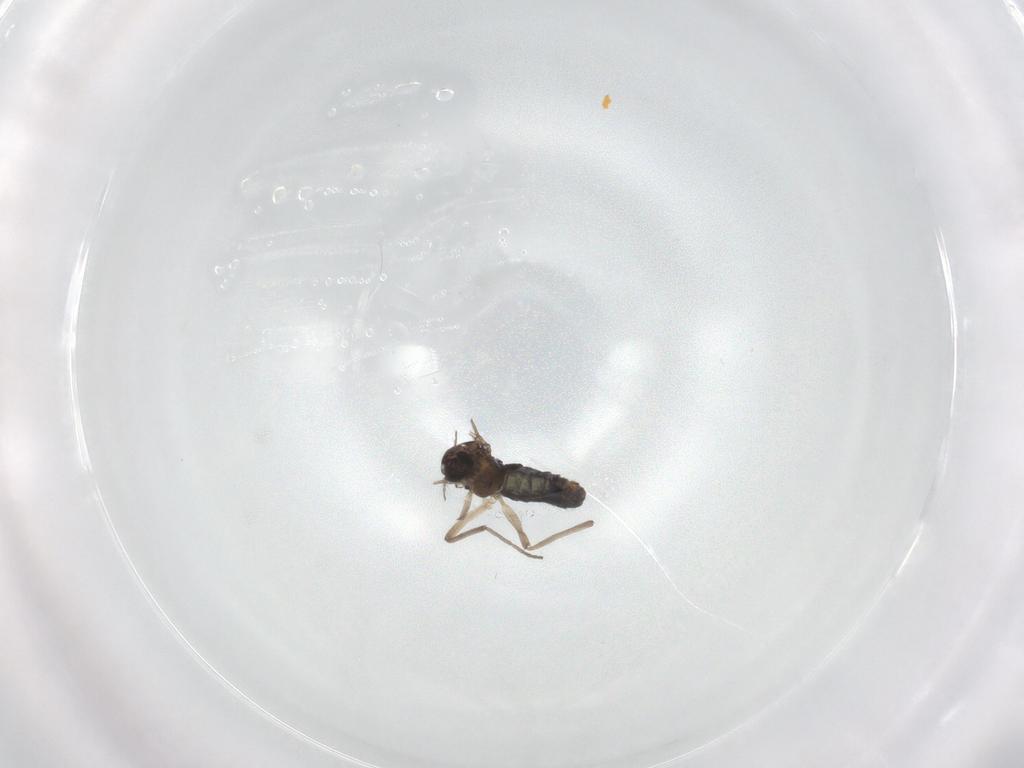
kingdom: Animalia
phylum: Arthropoda
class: Insecta
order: Diptera
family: Chironomidae
